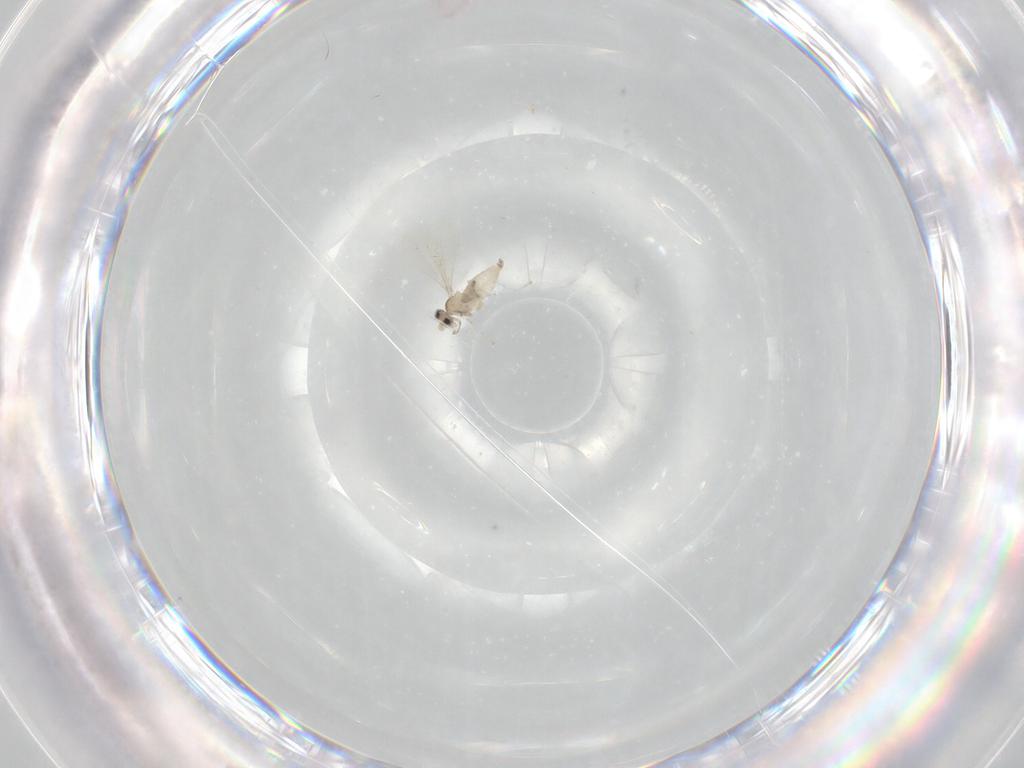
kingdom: Animalia
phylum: Arthropoda
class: Insecta
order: Diptera
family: Cecidomyiidae
